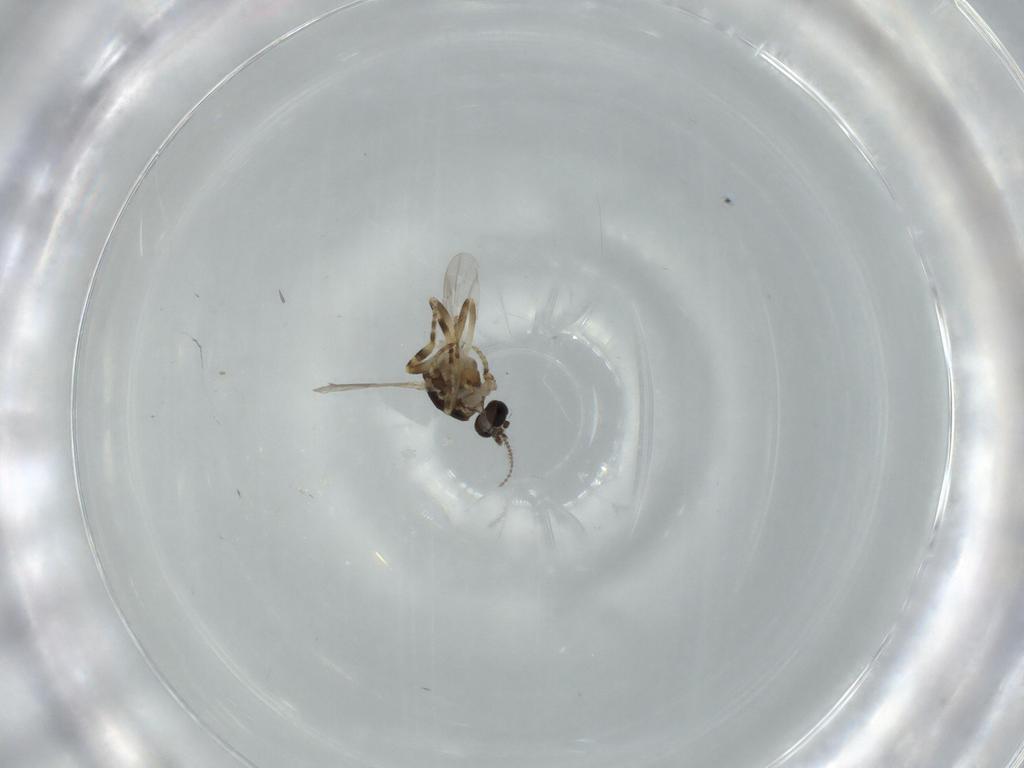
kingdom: Animalia
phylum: Arthropoda
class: Insecta
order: Diptera
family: Ceratopogonidae
